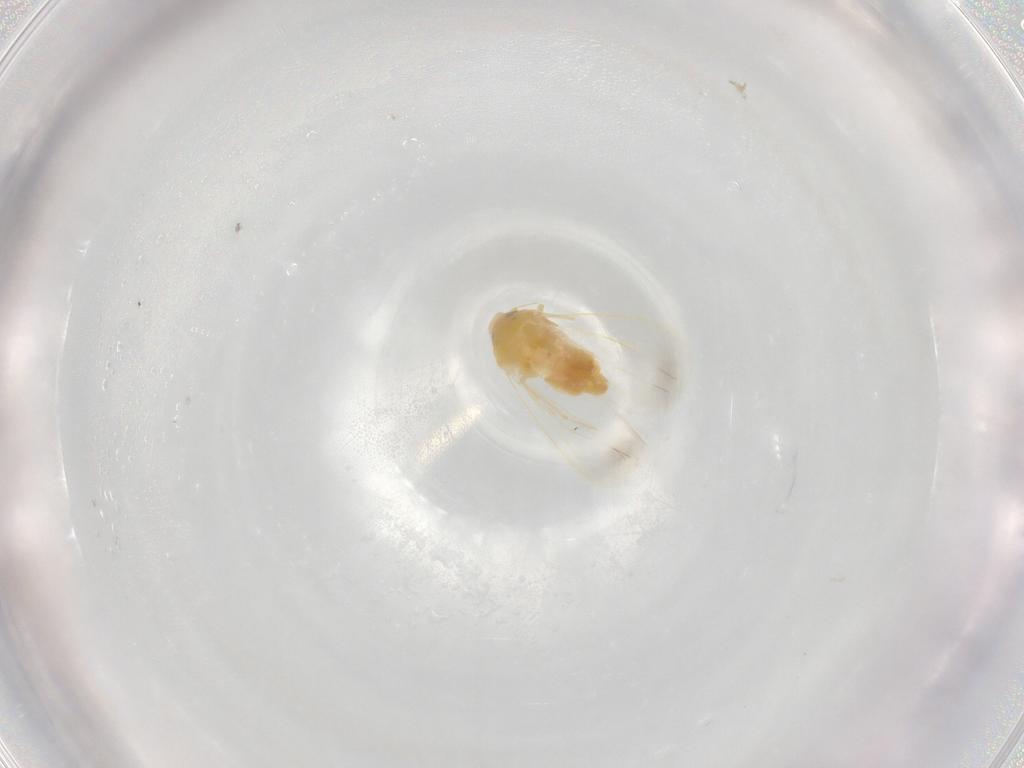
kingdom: Animalia
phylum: Arthropoda
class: Insecta
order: Hemiptera
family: Aleyrodidae
